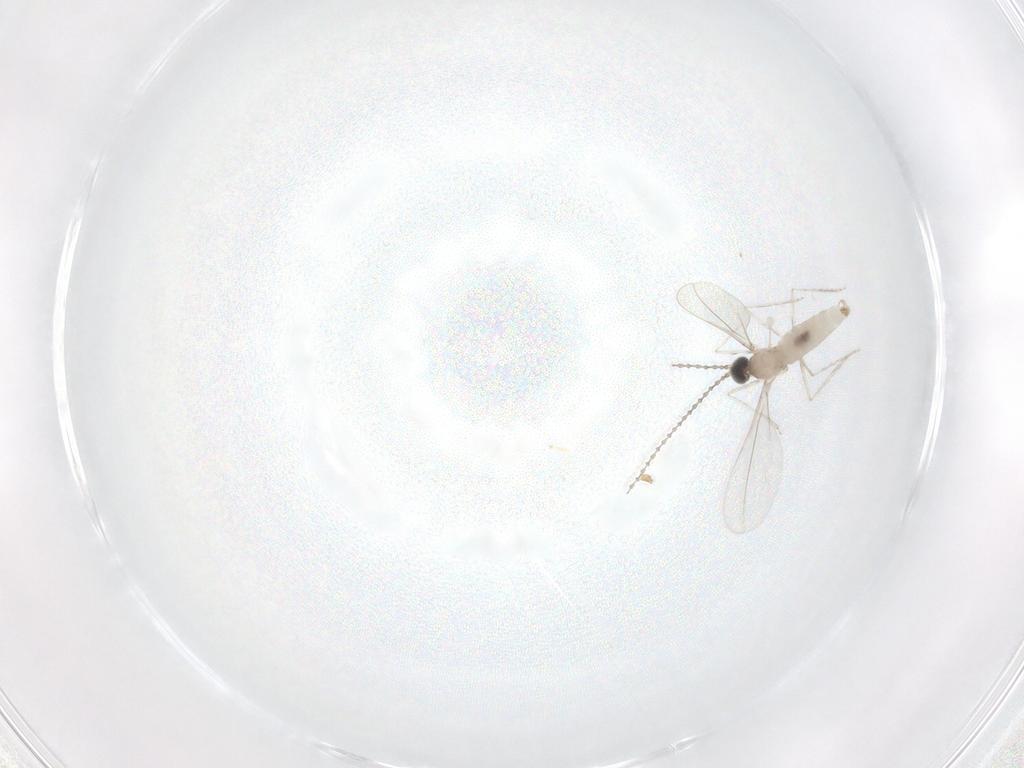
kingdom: Animalia
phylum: Arthropoda
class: Insecta
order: Diptera
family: Cecidomyiidae
